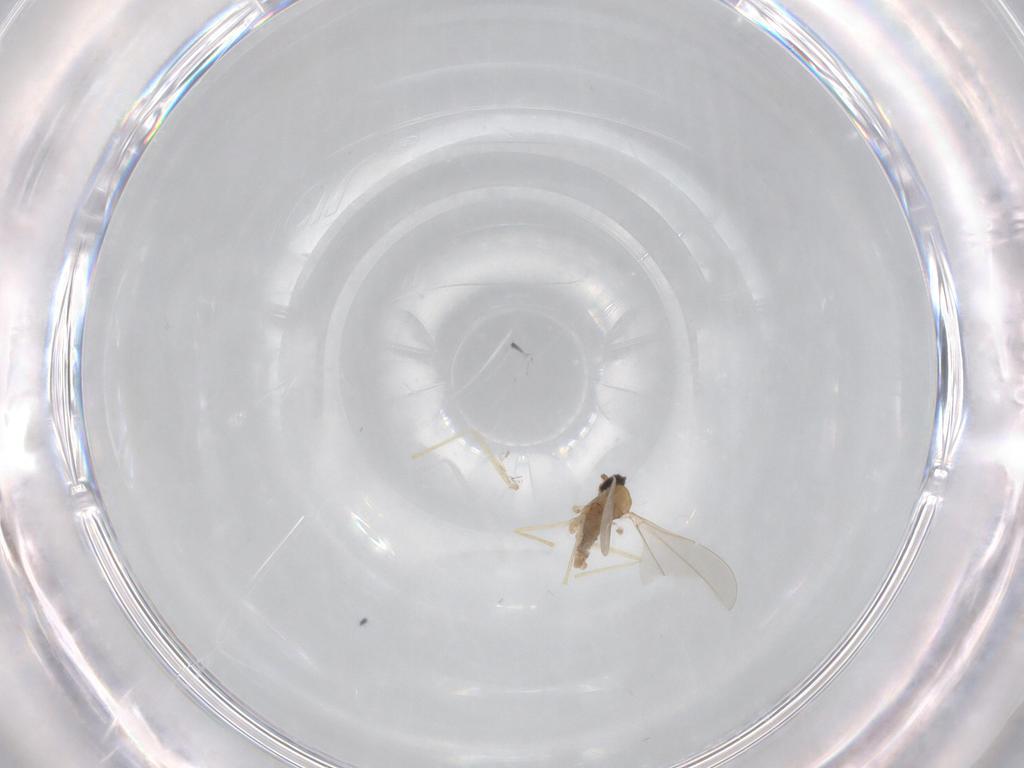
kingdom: Animalia
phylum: Arthropoda
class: Insecta
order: Diptera
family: Cecidomyiidae
